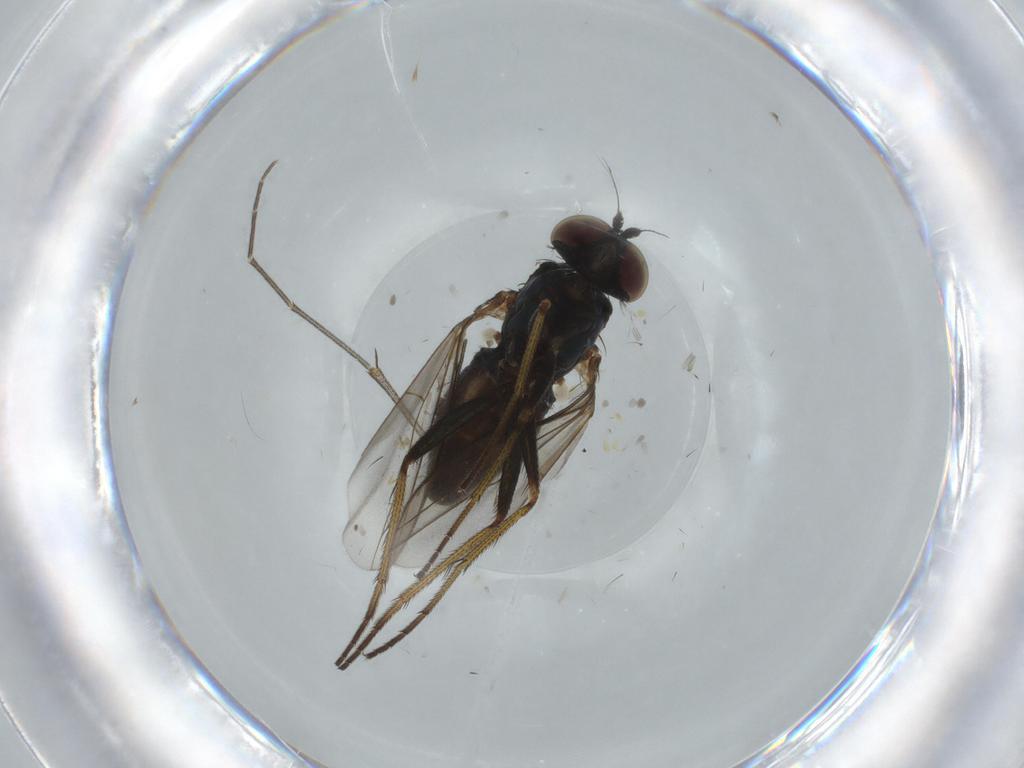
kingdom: Animalia
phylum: Arthropoda
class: Insecta
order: Diptera
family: Dolichopodidae
